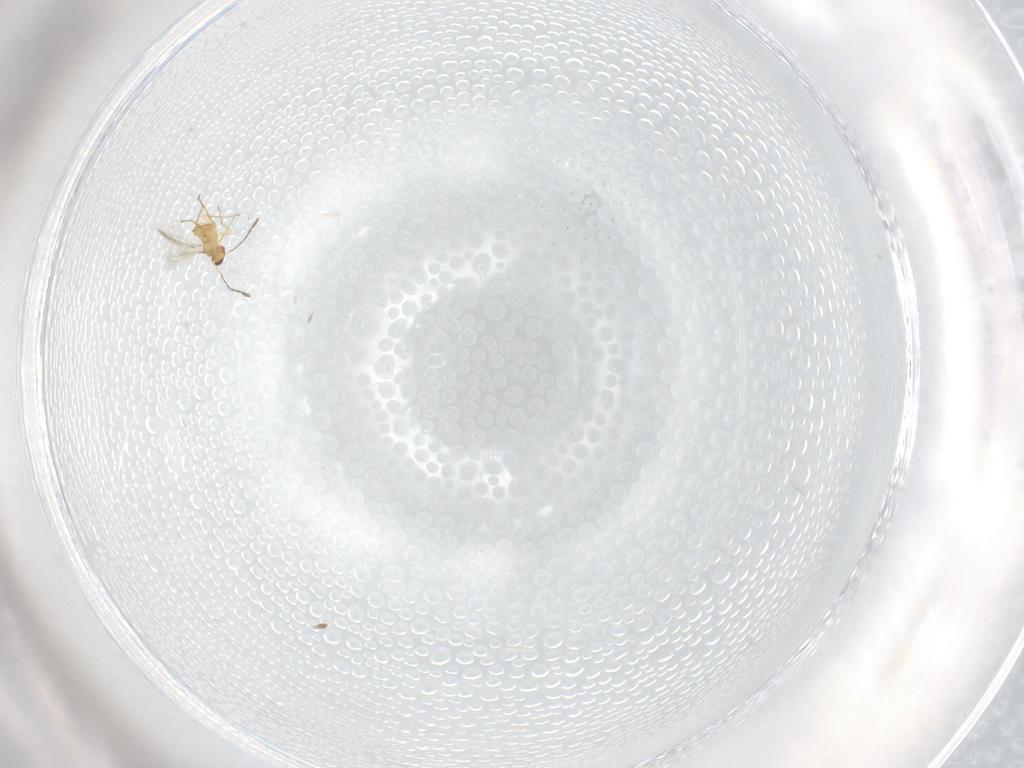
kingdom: Animalia
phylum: Arthropoda
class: Insecta
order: Hymenoptera
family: Mymaridae
